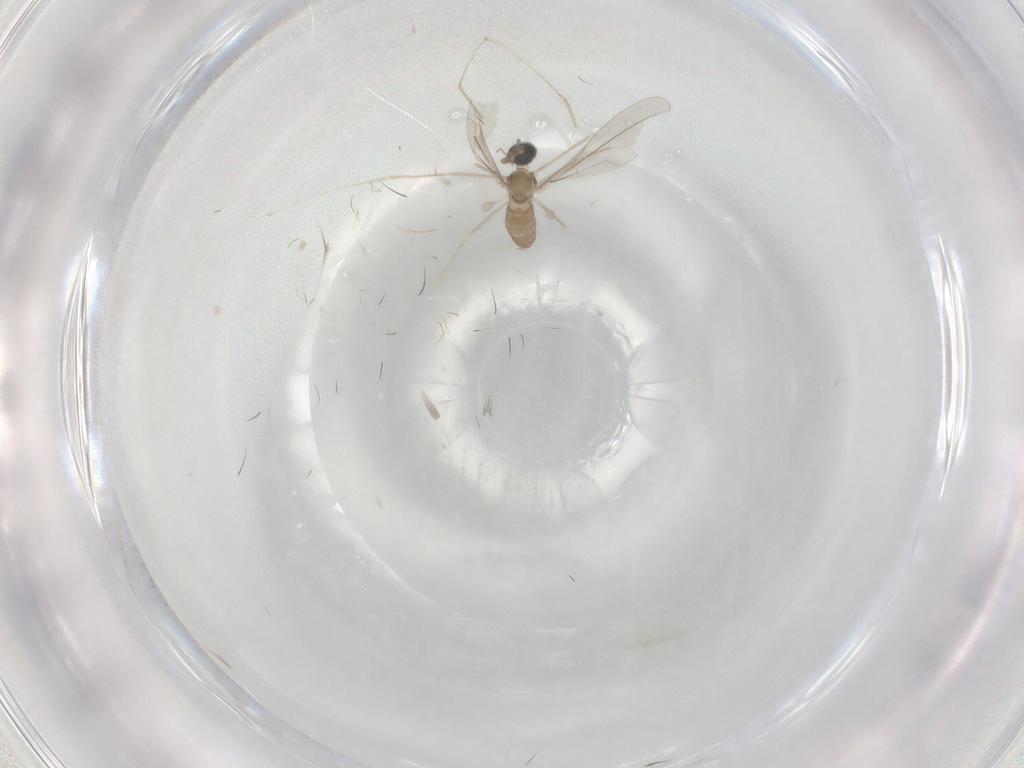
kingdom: Animalia
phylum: Arthropoda
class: Insecta
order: Diptera
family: Cecidomyiidae
